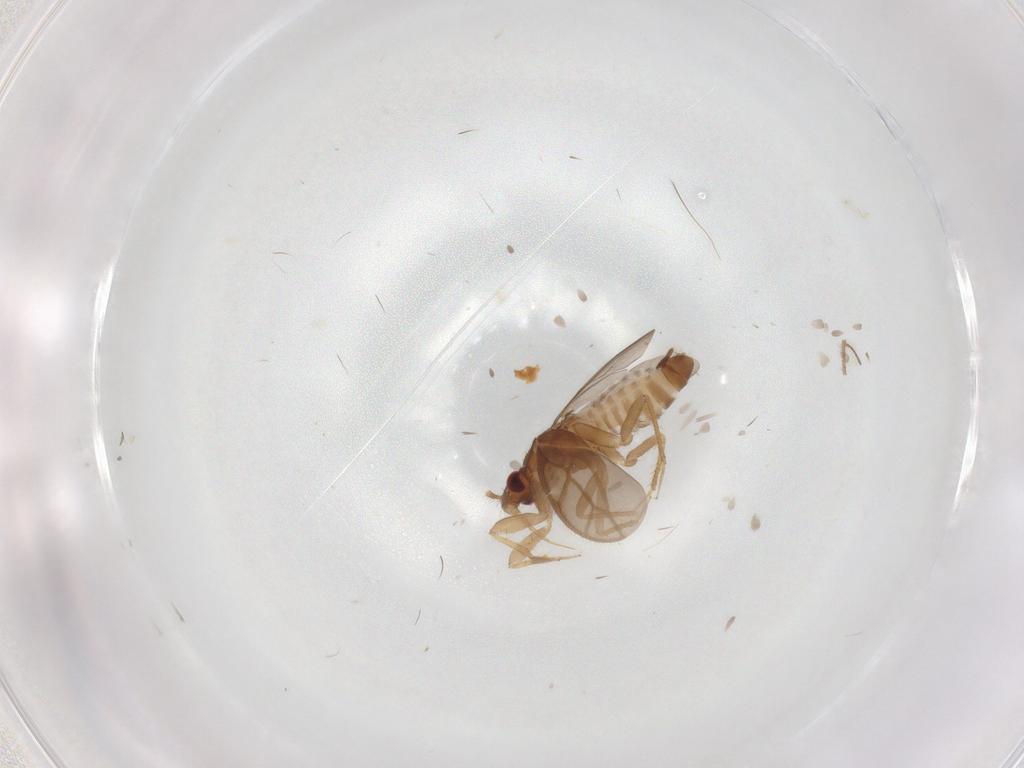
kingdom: Animalia
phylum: Arthropoda
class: Insecta
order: Hemiptera
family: Ceratocombidae
